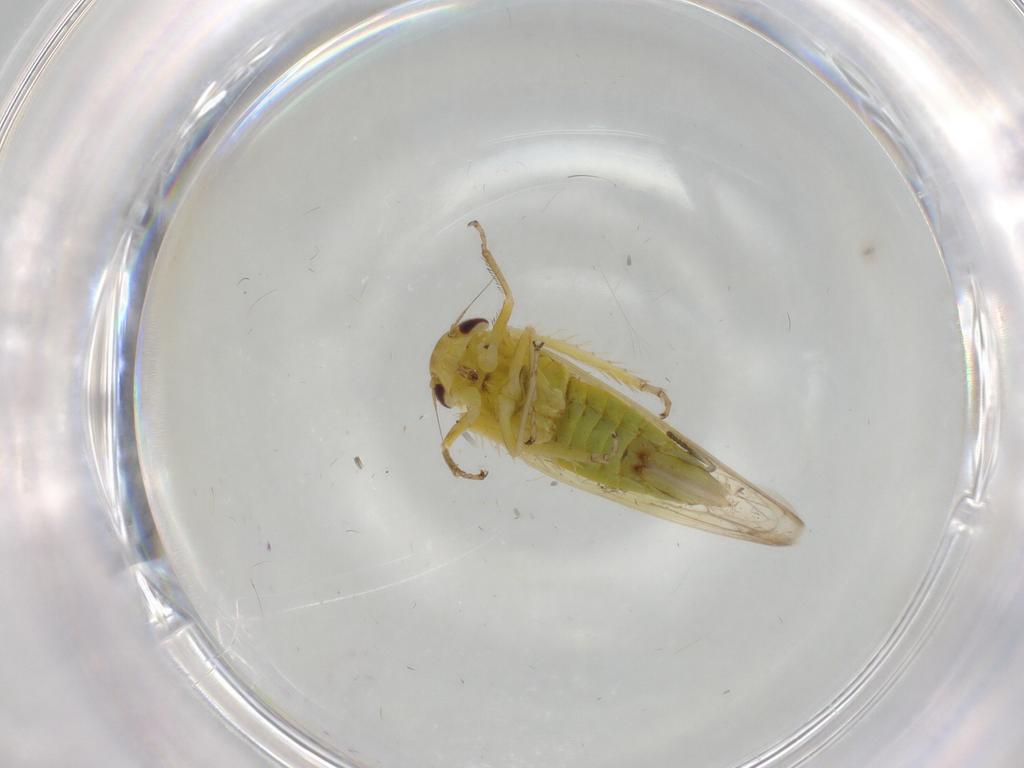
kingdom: Animalia
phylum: Arthropoda
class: Insecta
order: Hemiptera
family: Cicadellidae
